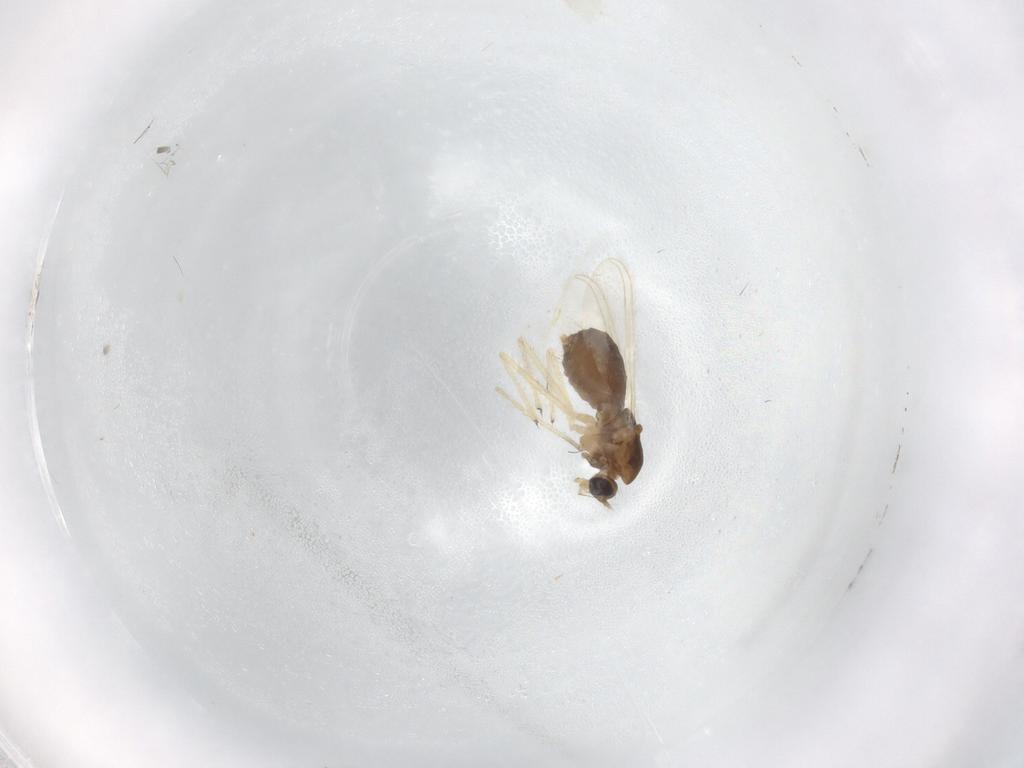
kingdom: Animalia
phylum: Arthropoda
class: Insecta
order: Diptera
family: Chironomidae
